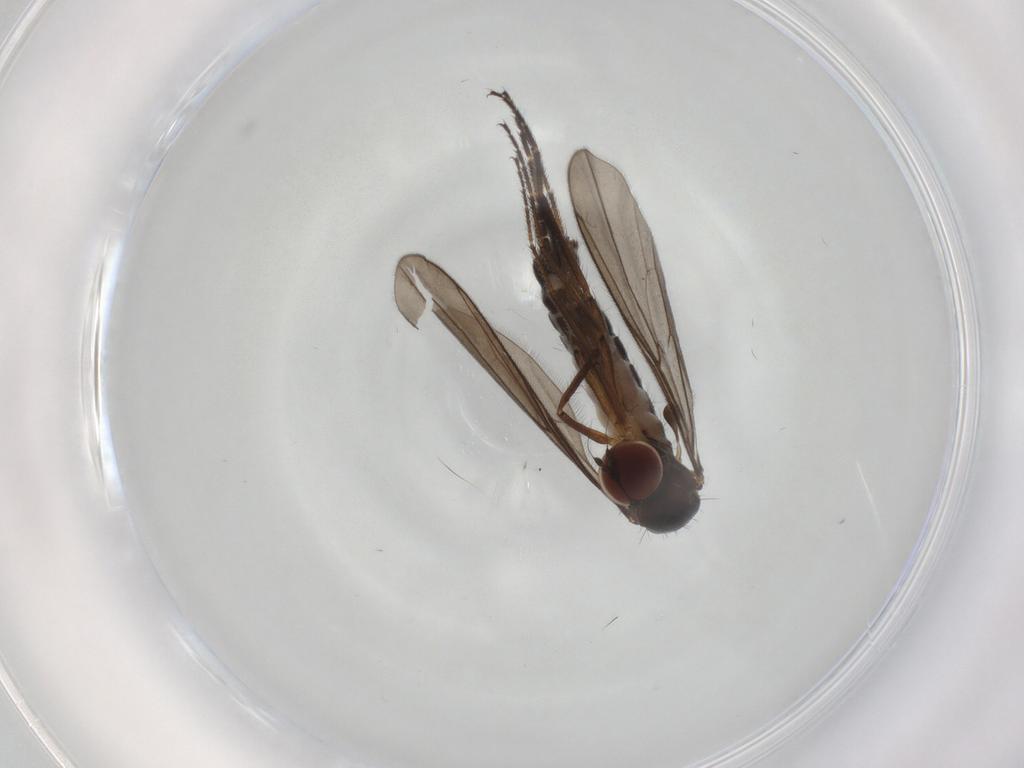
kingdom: Animalia
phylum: Arthropoda
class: Insecta
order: Diptera
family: Hybotidae
